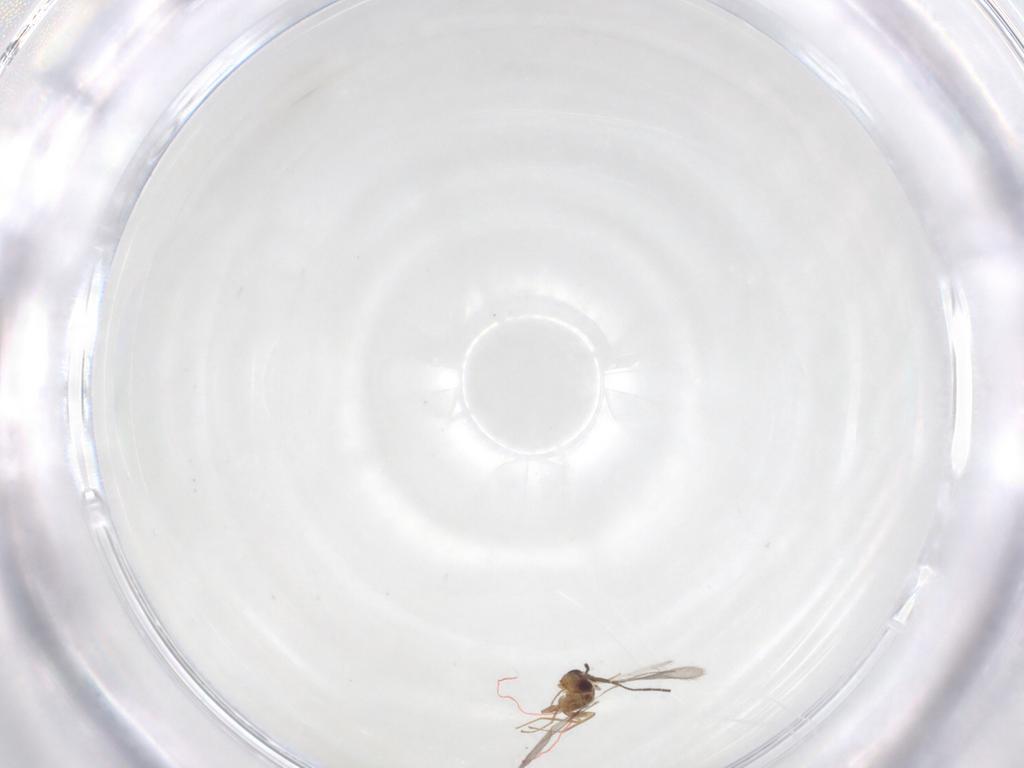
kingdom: Animalia
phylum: Arthropoda
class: Insecta
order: Hymenoptera
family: Mymaridae
